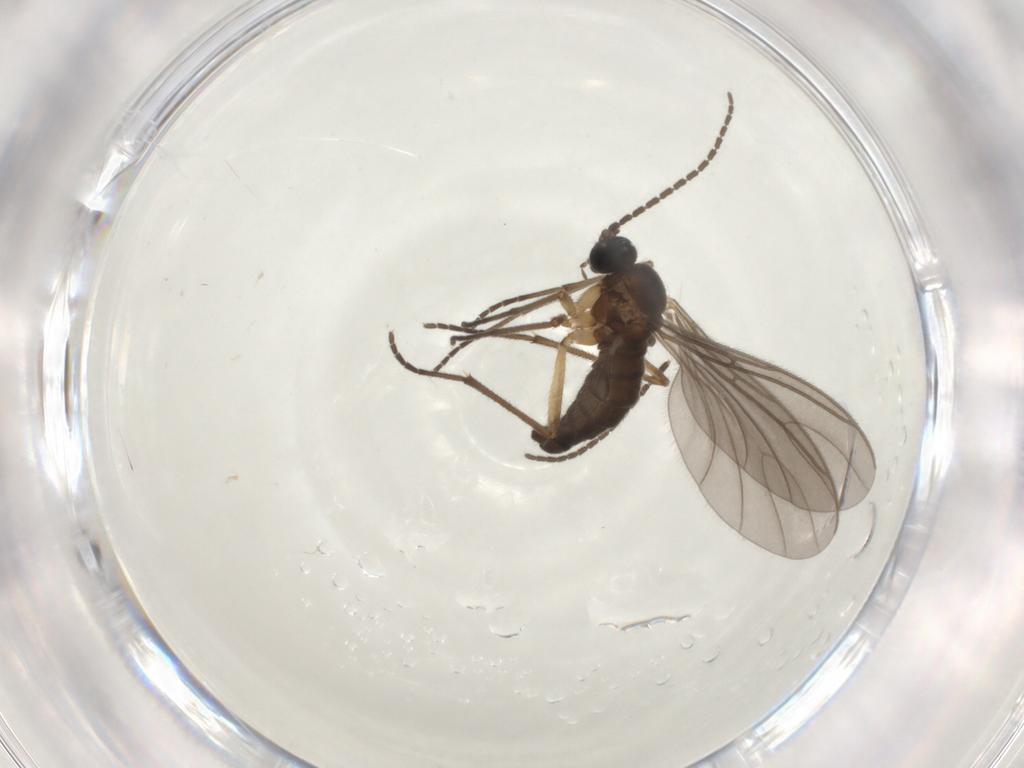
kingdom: Animalia
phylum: Arthropoda
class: Insecta
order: Diptera
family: Sciaridae
